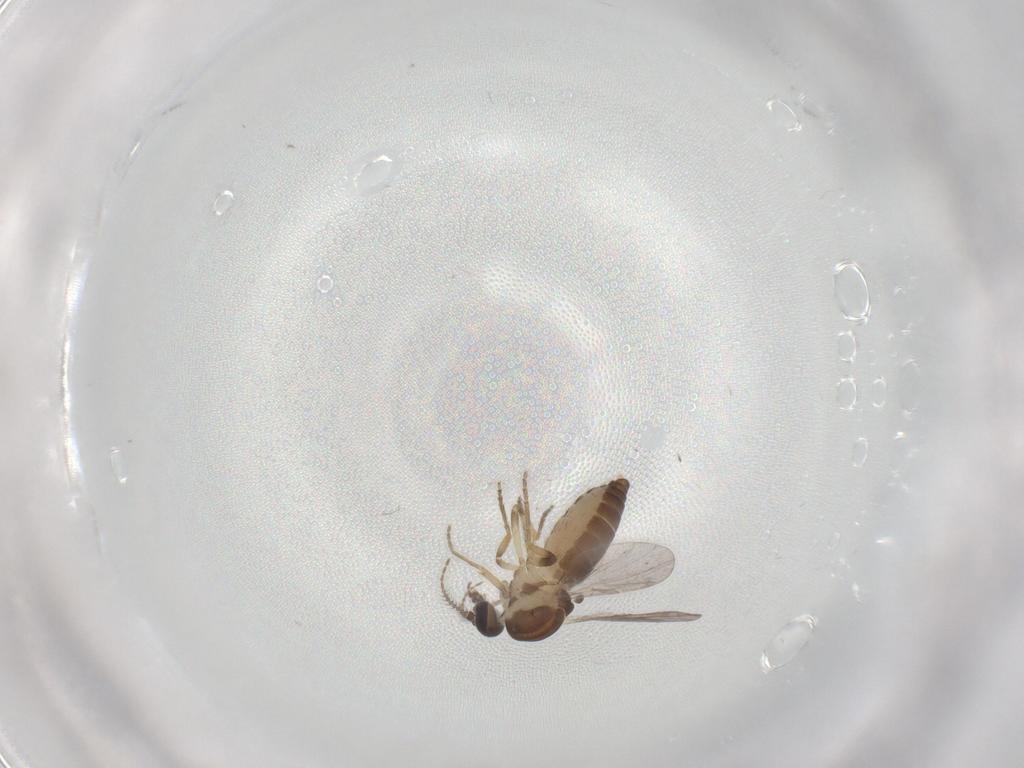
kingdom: Animalia
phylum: Arthropoda
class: Insecta
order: Diptera
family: Ceratopogonidae
